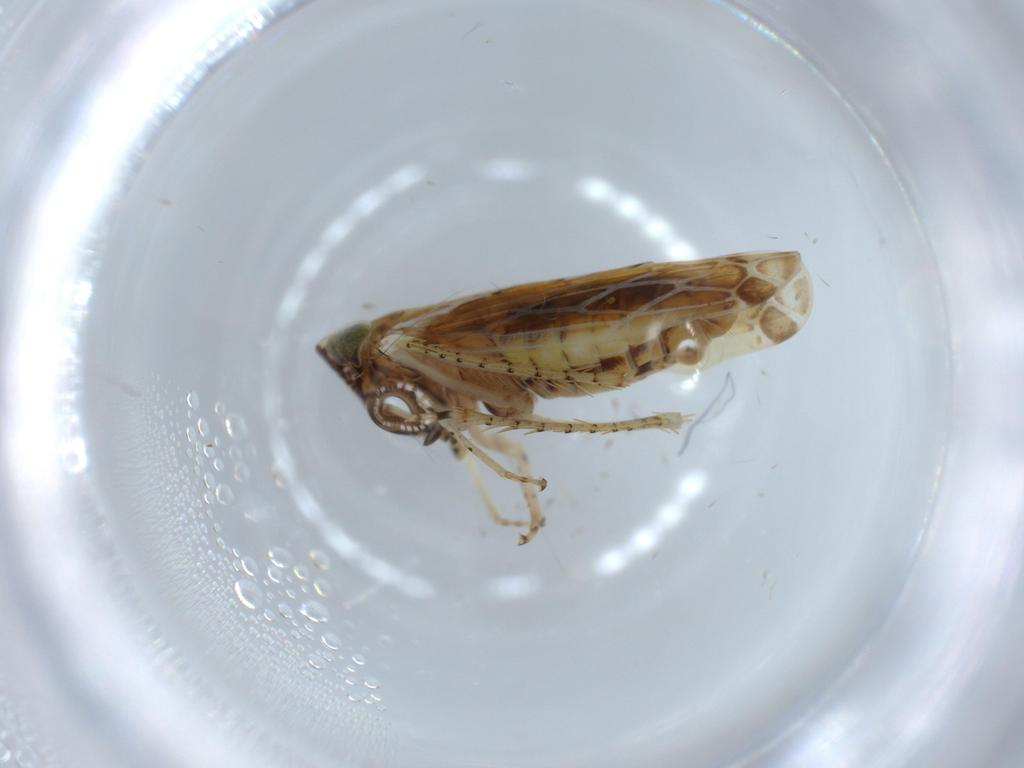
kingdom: Animalia
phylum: Arthropoda
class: Insecta
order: Hemiptera
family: Cicadellidae
